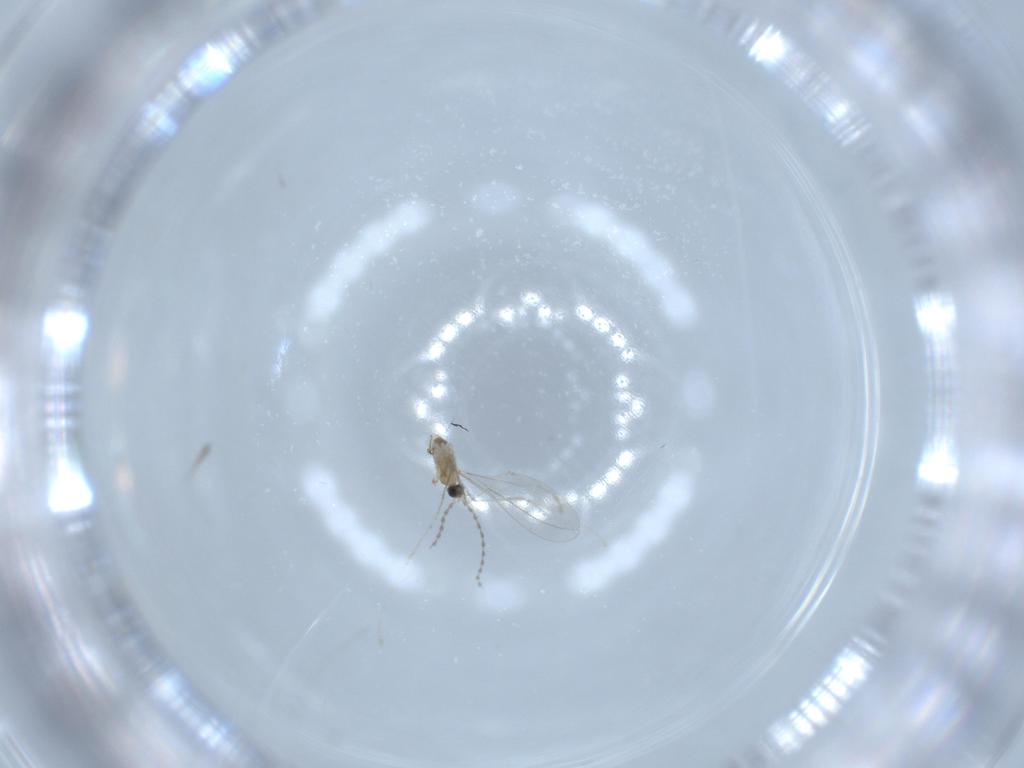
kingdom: Animalia
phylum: Arthropoda
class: Insecta
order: Diptera
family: Cecidomyiidae
